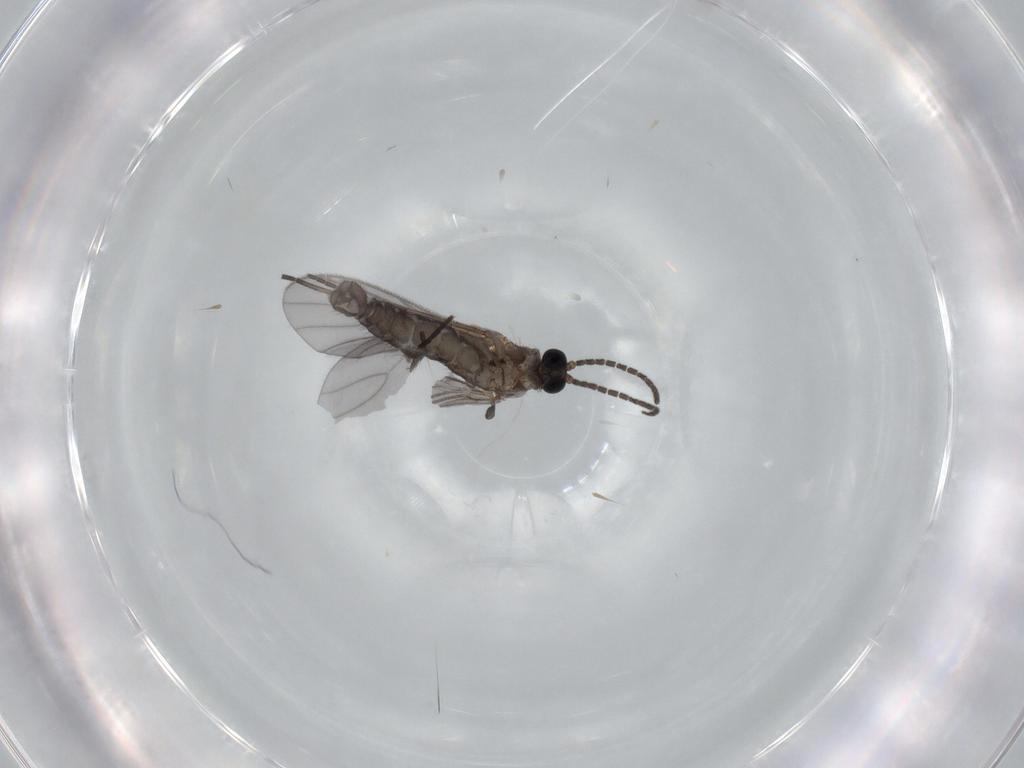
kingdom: Animalia
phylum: Arthropoda
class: Insecta
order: Diptera
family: Sciaridae
